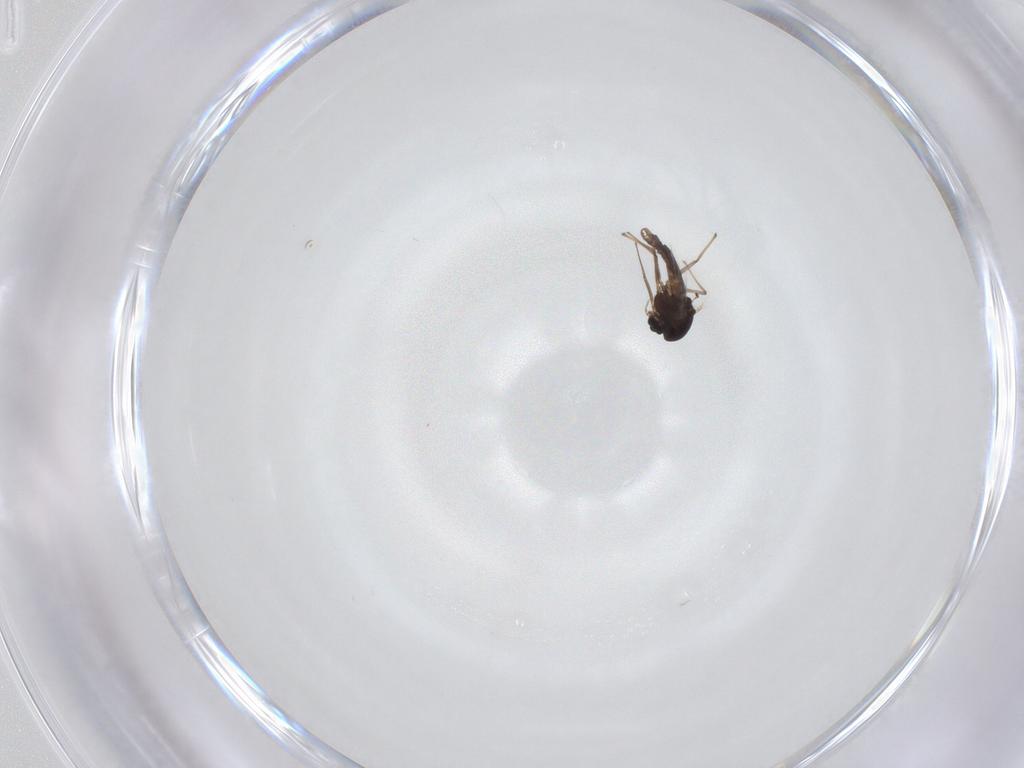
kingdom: Animalia
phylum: Arthropoda
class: Insecta
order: Diptera
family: Chironomidae
